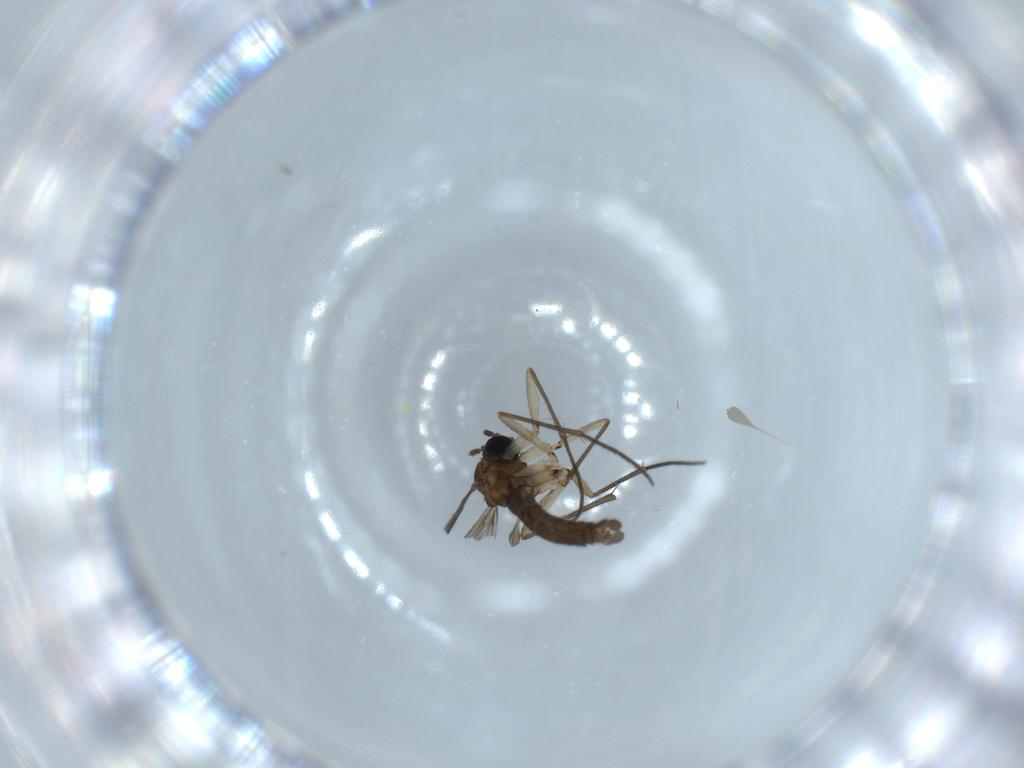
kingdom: Animalia
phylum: Arthropoda
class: Insecta
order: Diptera
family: Sciaridae
